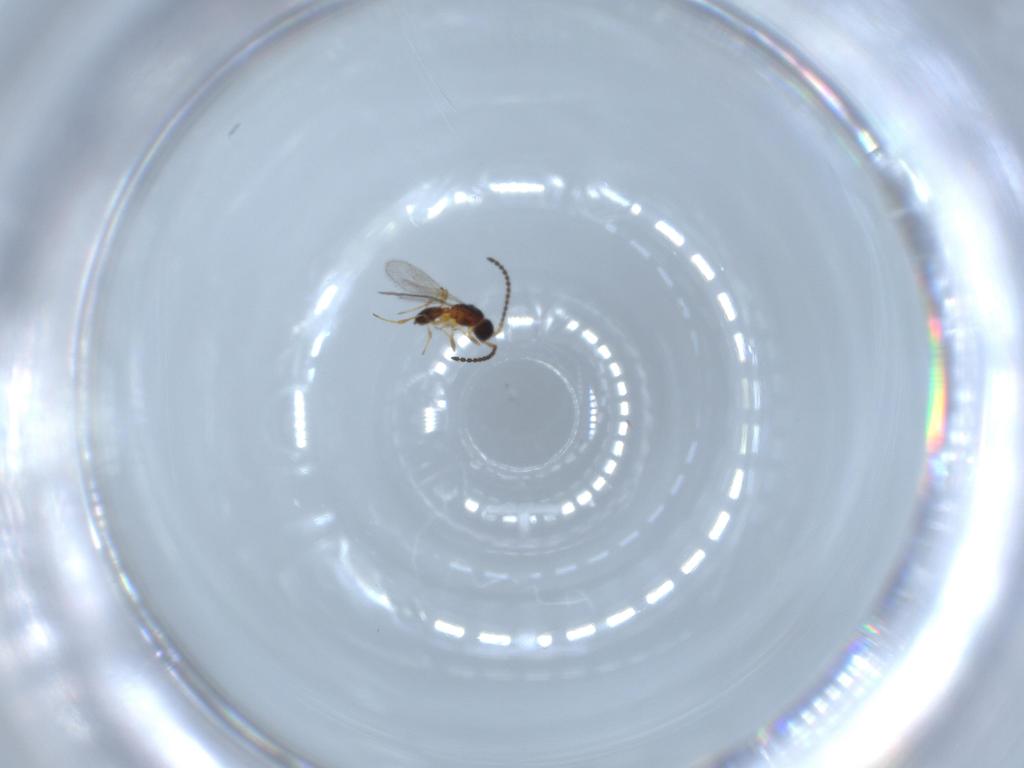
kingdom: Animalia
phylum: Arthropoda
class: Insecta
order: Hymenoptera
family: Diapriidae
